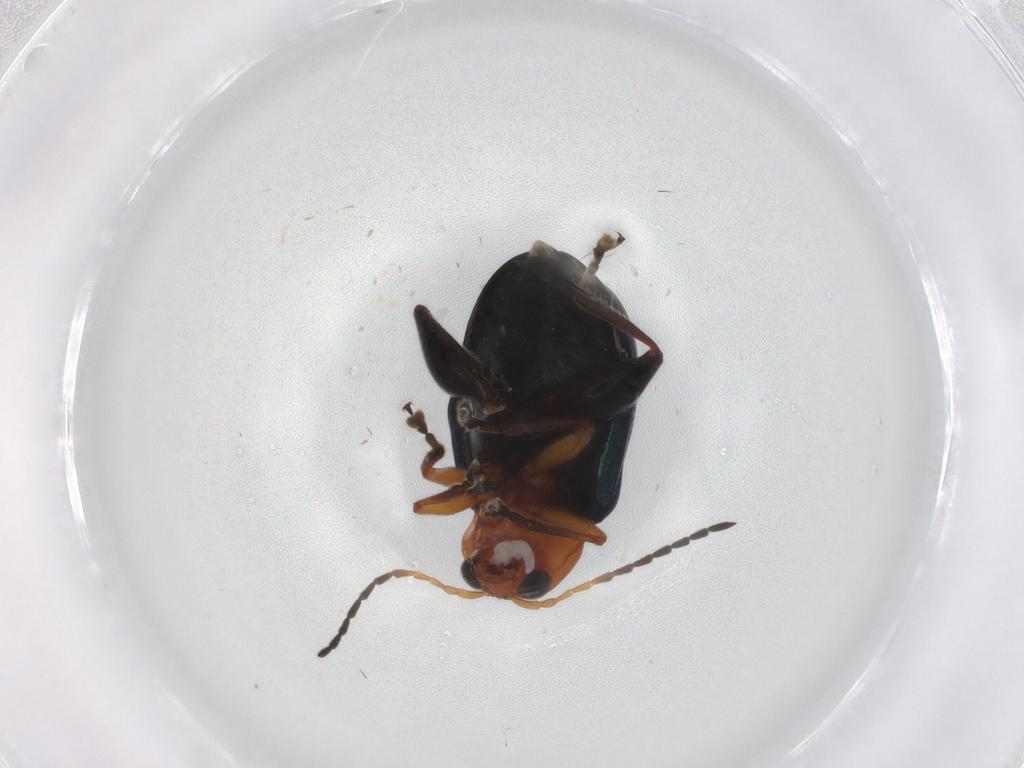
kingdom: Animalia
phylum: Arthropoda
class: Insecta
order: Coleoptera
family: Chrysomelidae
